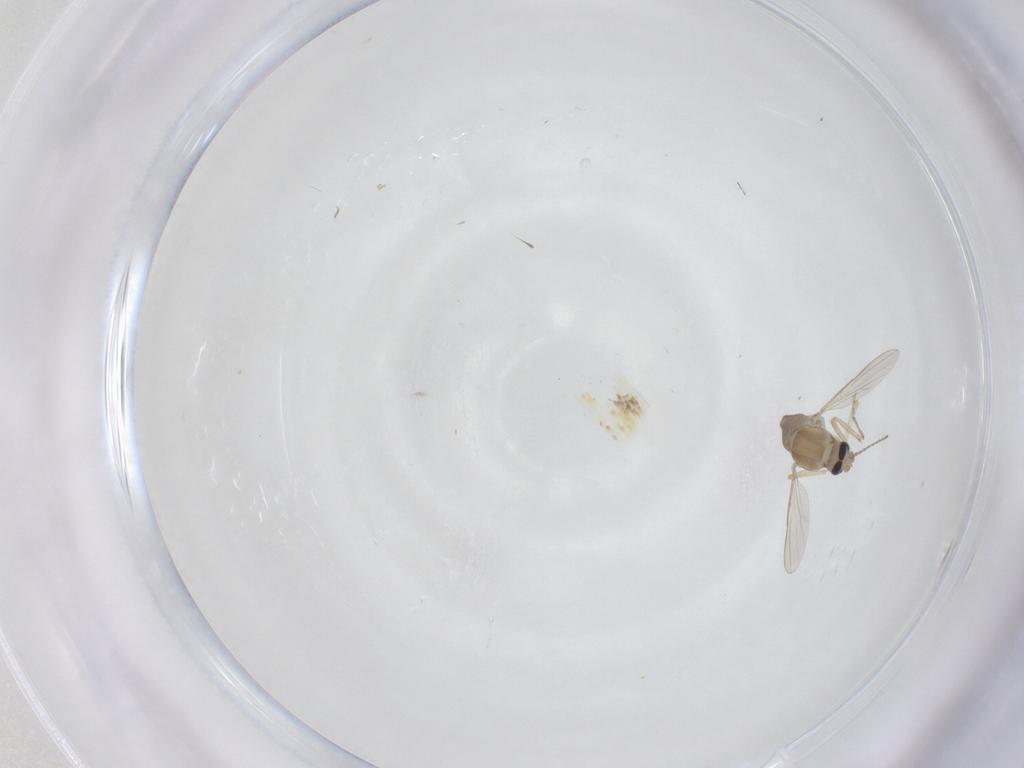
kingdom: Animalia
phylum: Arthropoda
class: Insecta
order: Diptera
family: Ceratopogonidae
